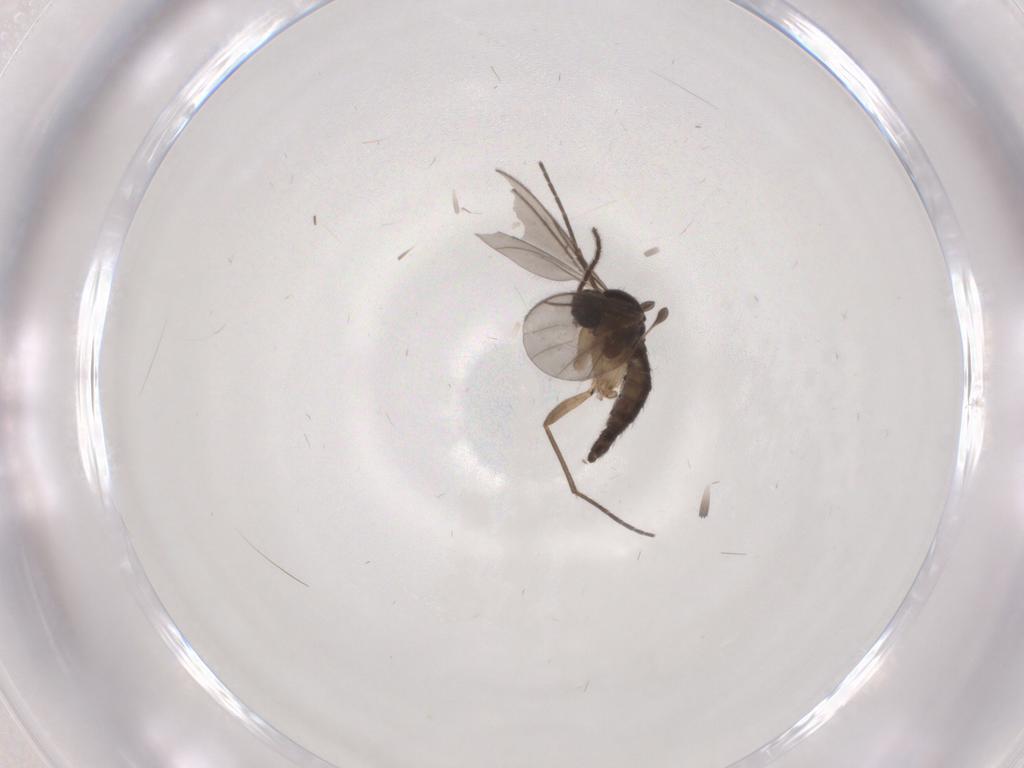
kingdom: Animalia
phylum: Arthropoda
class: Insecta
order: Diptera
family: Sciaridae
